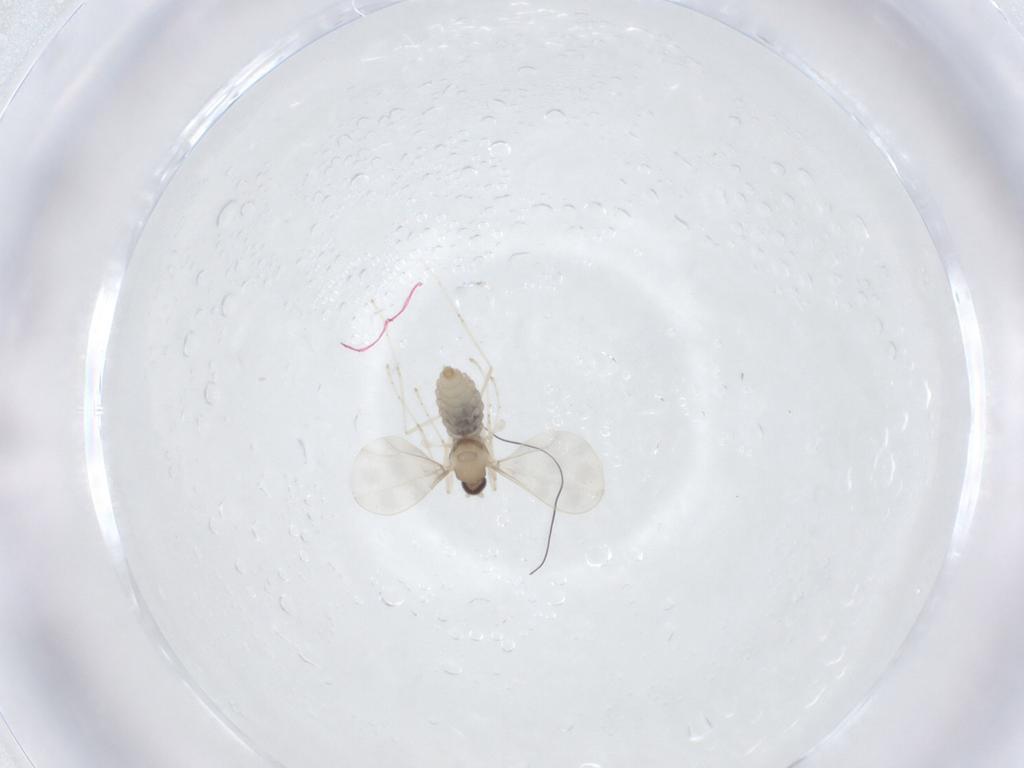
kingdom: Animalia
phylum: Arthropoda
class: Insecta
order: Diptera
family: Cecidomyiidae
